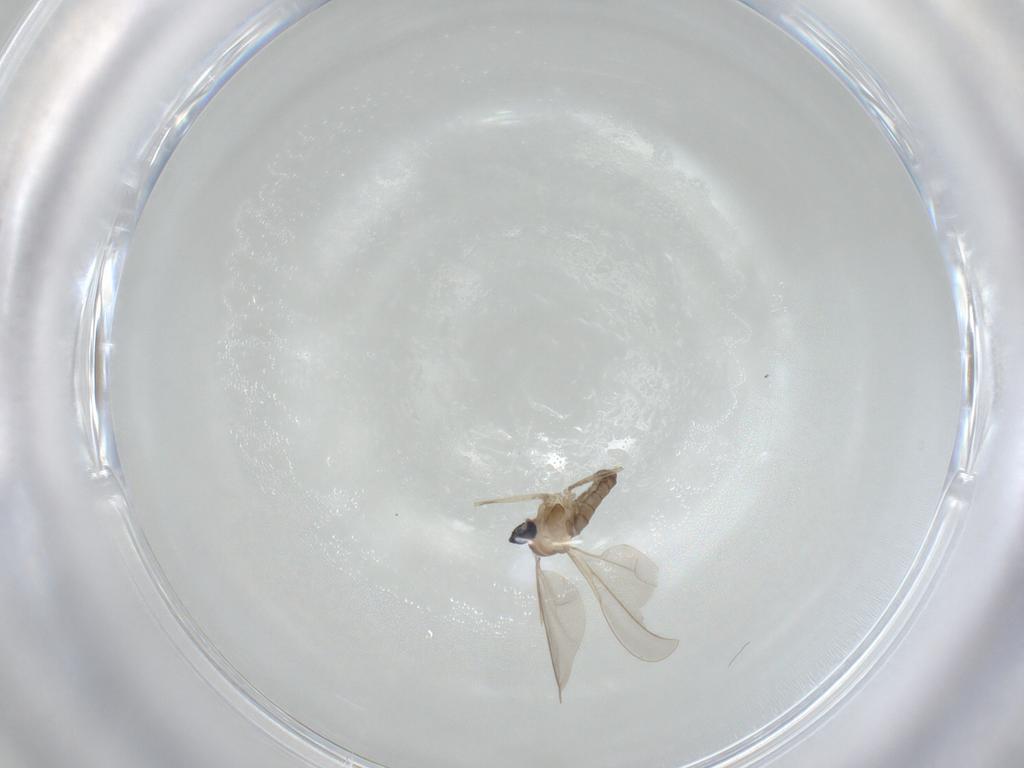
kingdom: Animalia
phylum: Arthropoda
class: Insecta
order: Diptera
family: Cecidomyiidae
